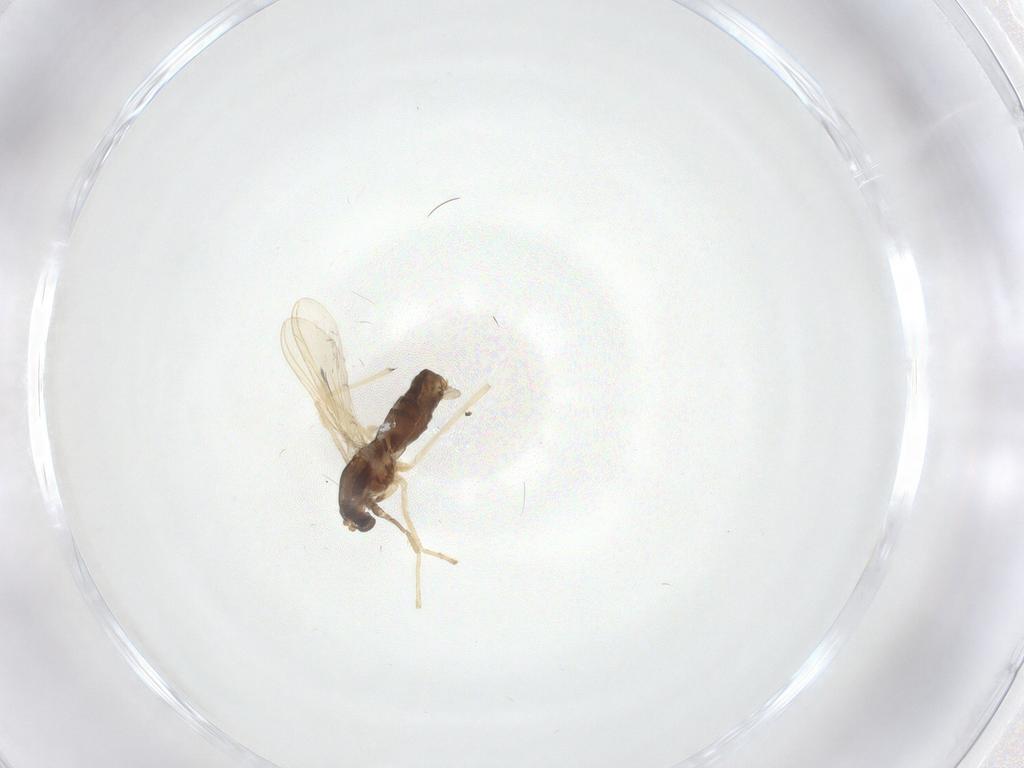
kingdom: Animalia
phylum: Arthropoda
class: Insecta
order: Diptera
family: Chironomidae
